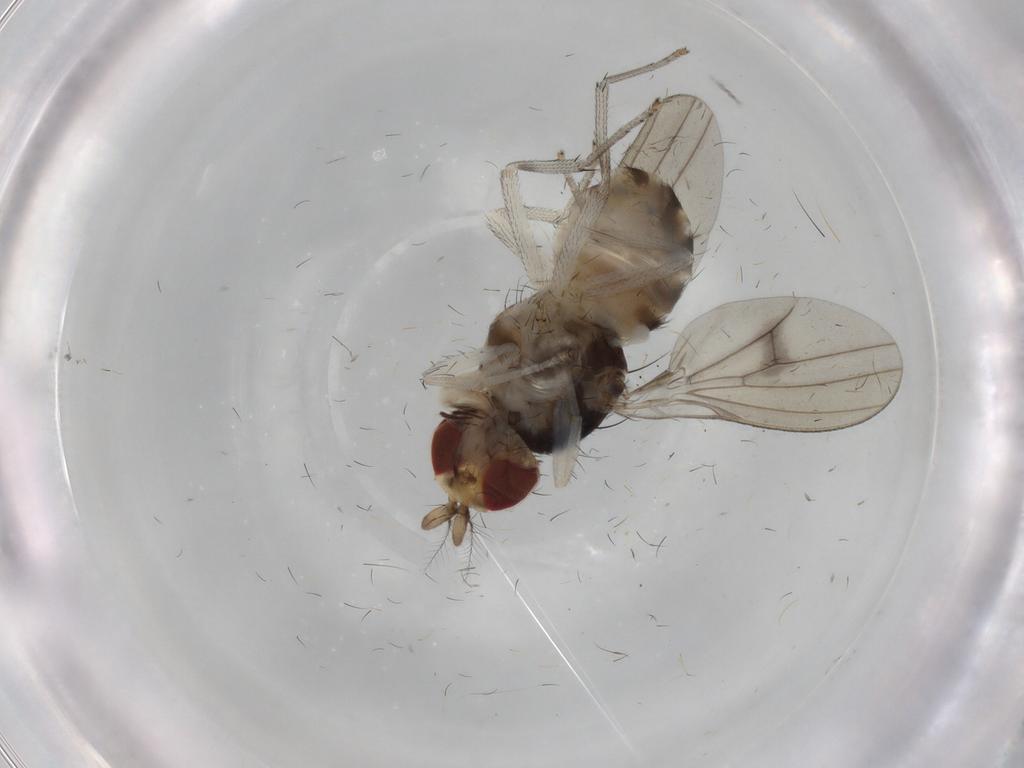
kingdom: Animalia
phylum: Arthropoda
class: Insecta
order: Diptera
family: Lauxaniidae
